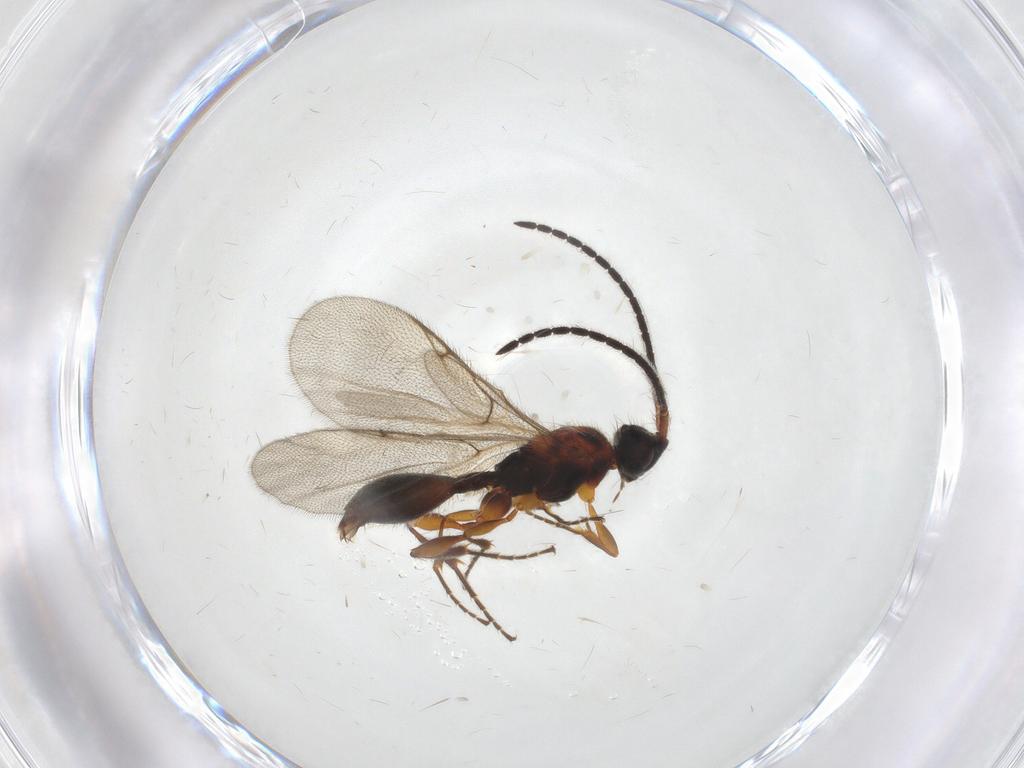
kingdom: Animalia
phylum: Arthropoda
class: Insecta
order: Hymenoptera
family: Diapriidae
